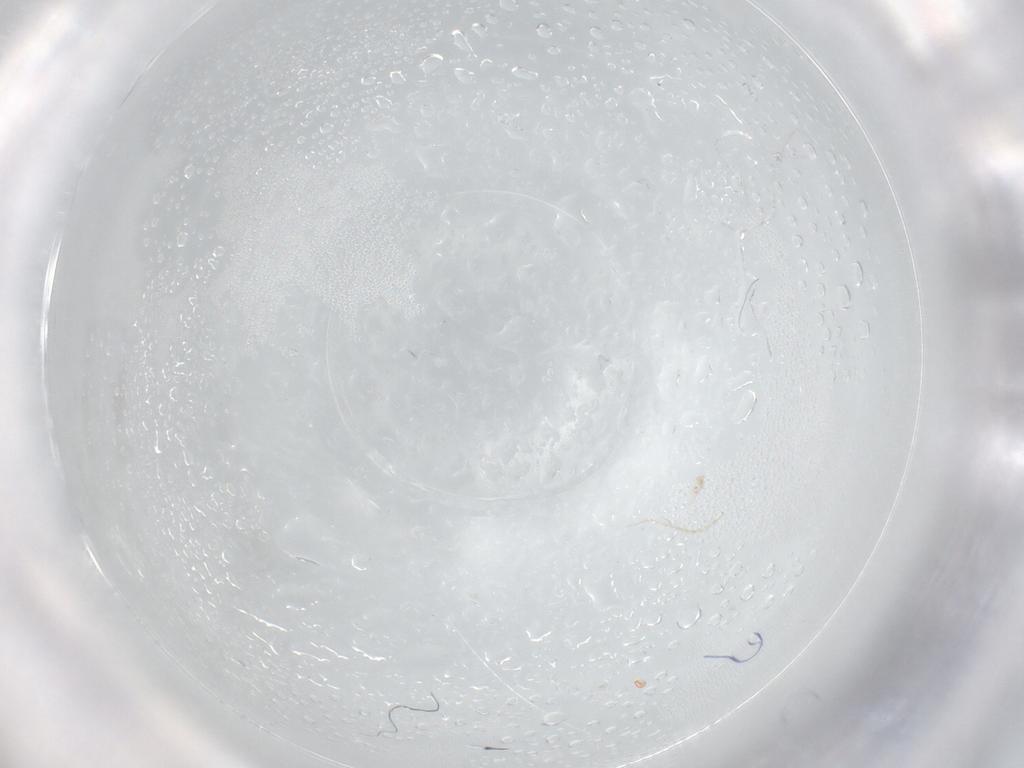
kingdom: Animalia
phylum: Arthropoda
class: Insecta
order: Lepidoptera
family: Geometridae
